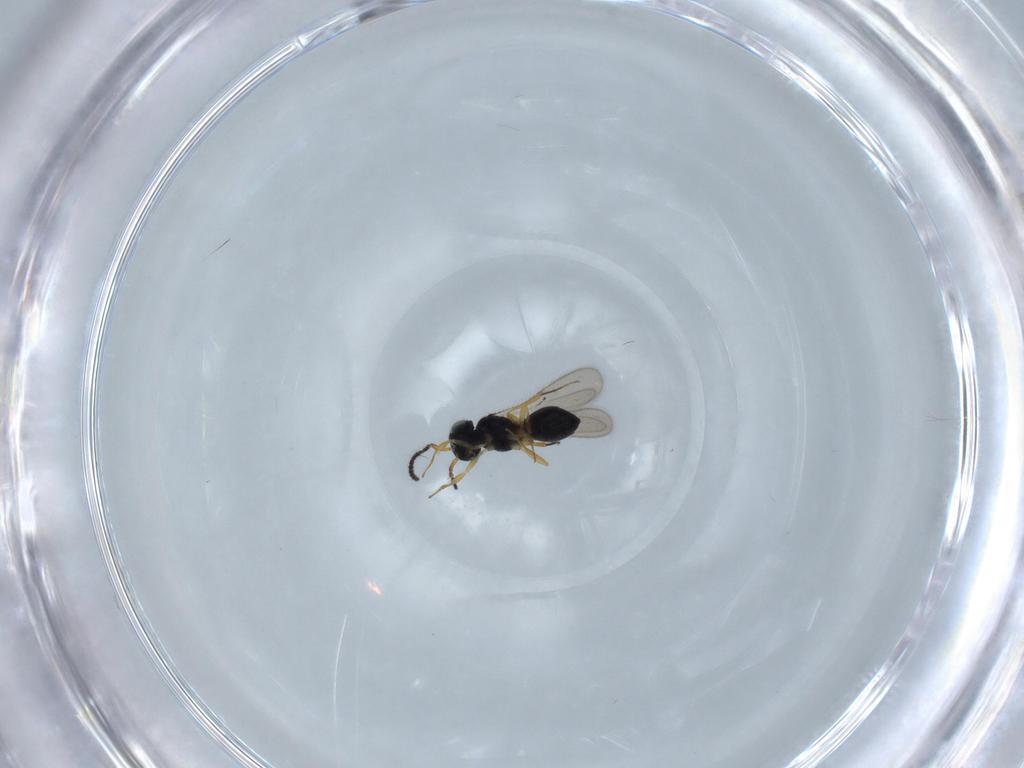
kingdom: Animalia
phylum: Arthropoda
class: Insecta
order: Hymenoptera
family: Scelionidae
